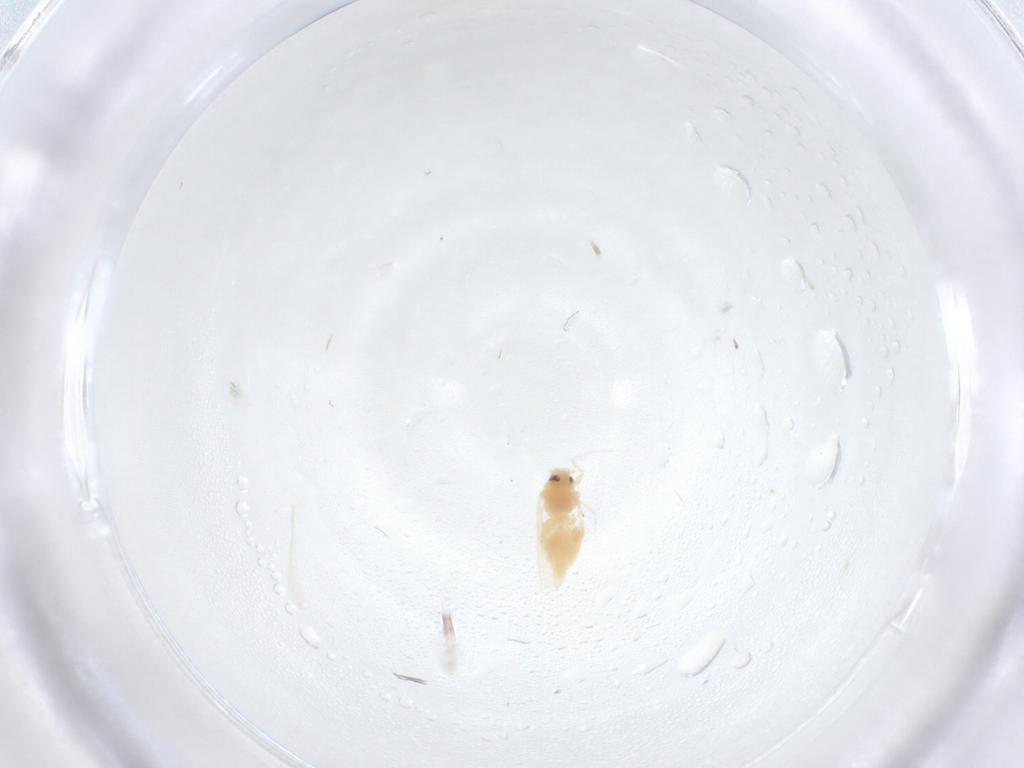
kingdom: Animalia
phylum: Arthropoda
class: Insecta
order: Hemiptera
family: Aleyrodidae
